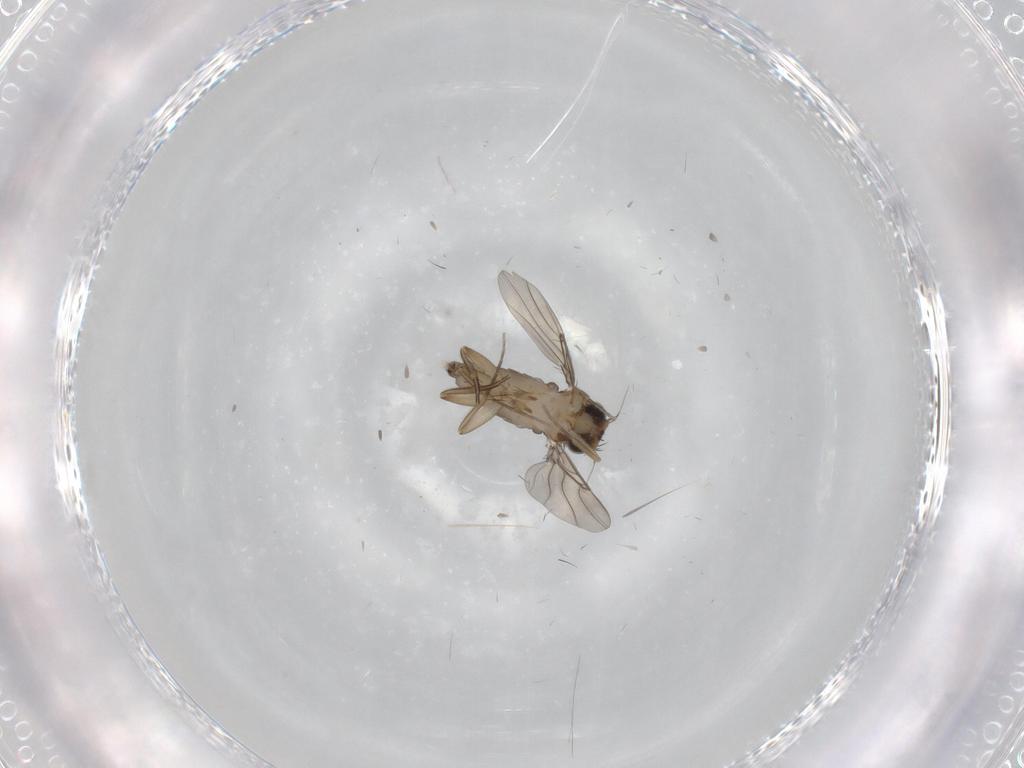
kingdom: Animalia
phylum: Arthropoda
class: Insecta
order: Diptera
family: Phoridae
